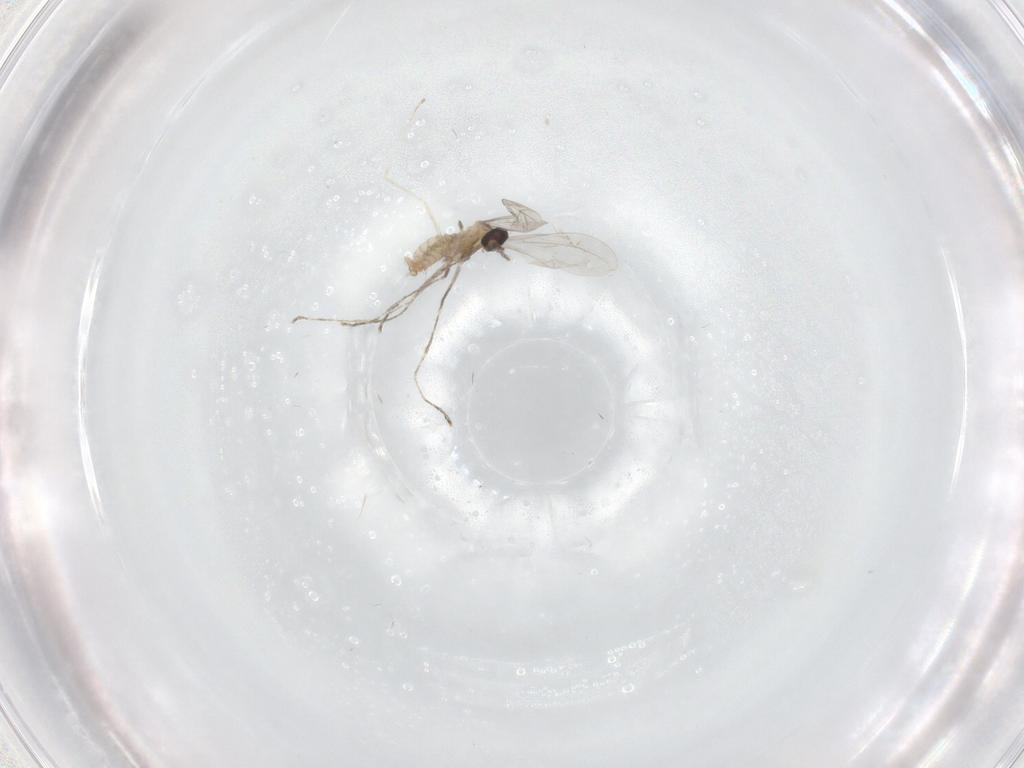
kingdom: Animalia
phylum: Arthropoda
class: Insecta
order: Diptera
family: Cecidomyiidae
